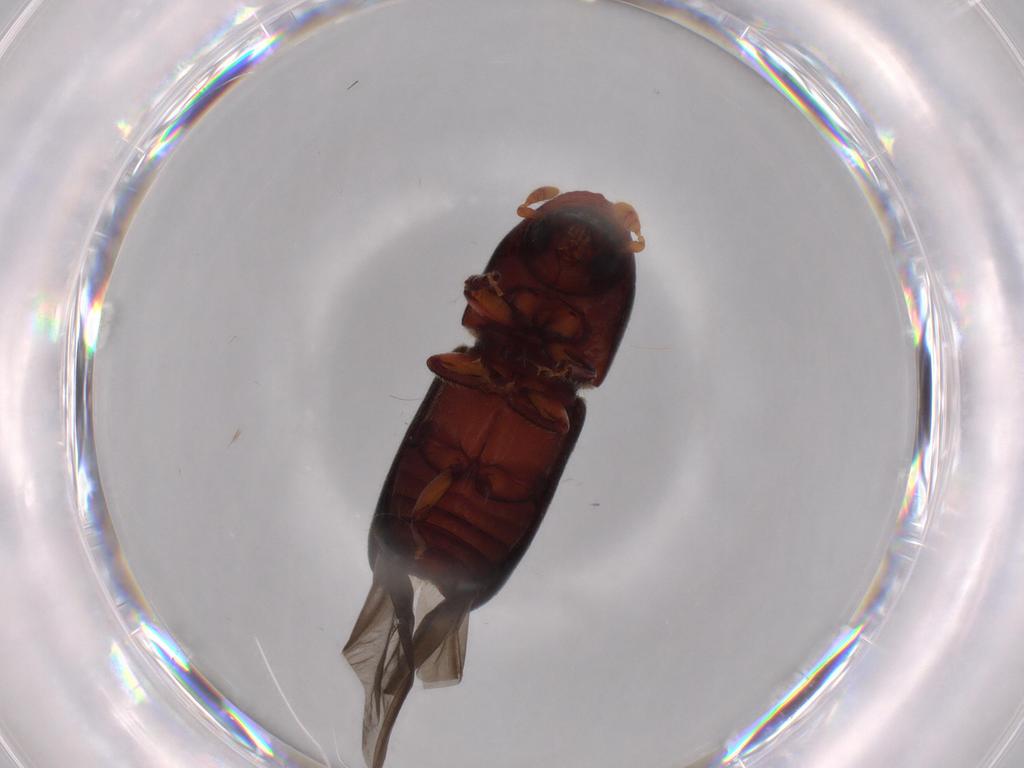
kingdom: Animalia
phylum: Arthropoda
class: Insecta
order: Coleoptera
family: Curculionidae
